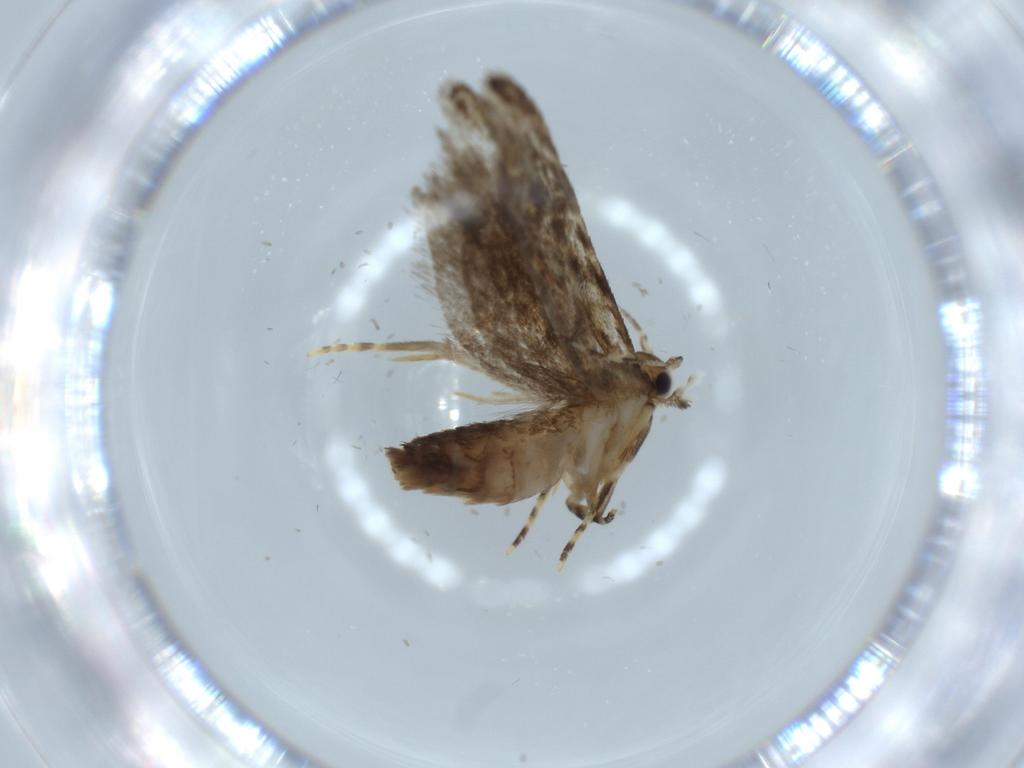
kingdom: Animalia
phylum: Arthropoda
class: Insecta
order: Lepidoptera
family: Tineidae
